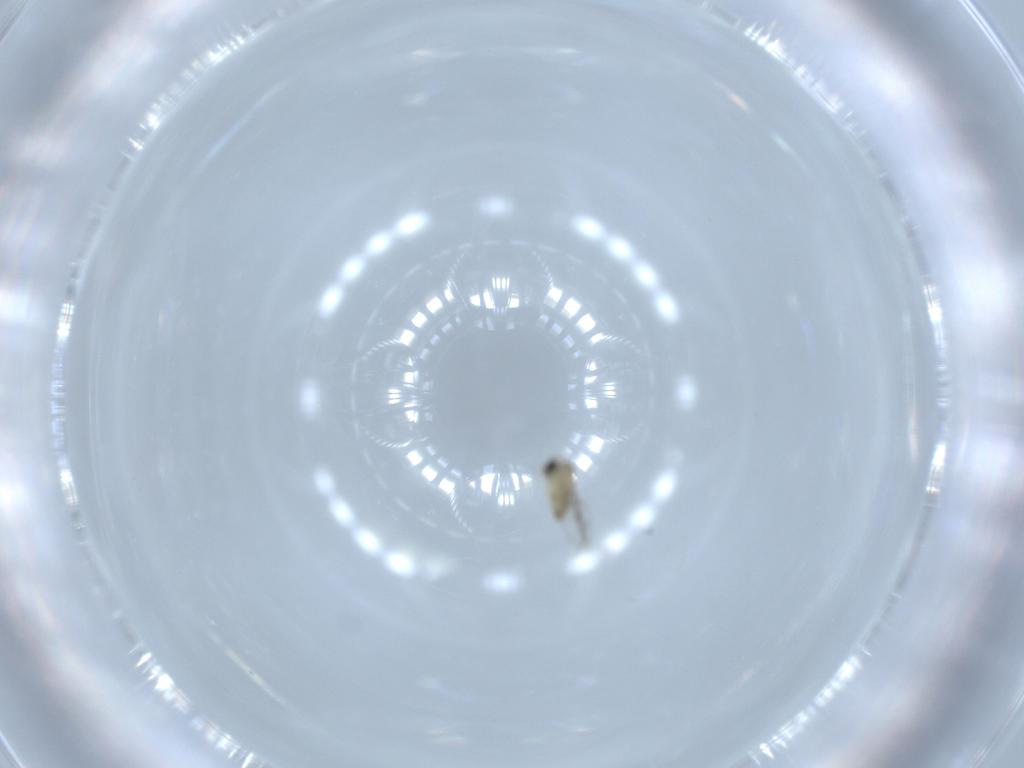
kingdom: Animalia
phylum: Arthropoda
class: Insecta
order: Diptera
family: Cecidomyiidae
